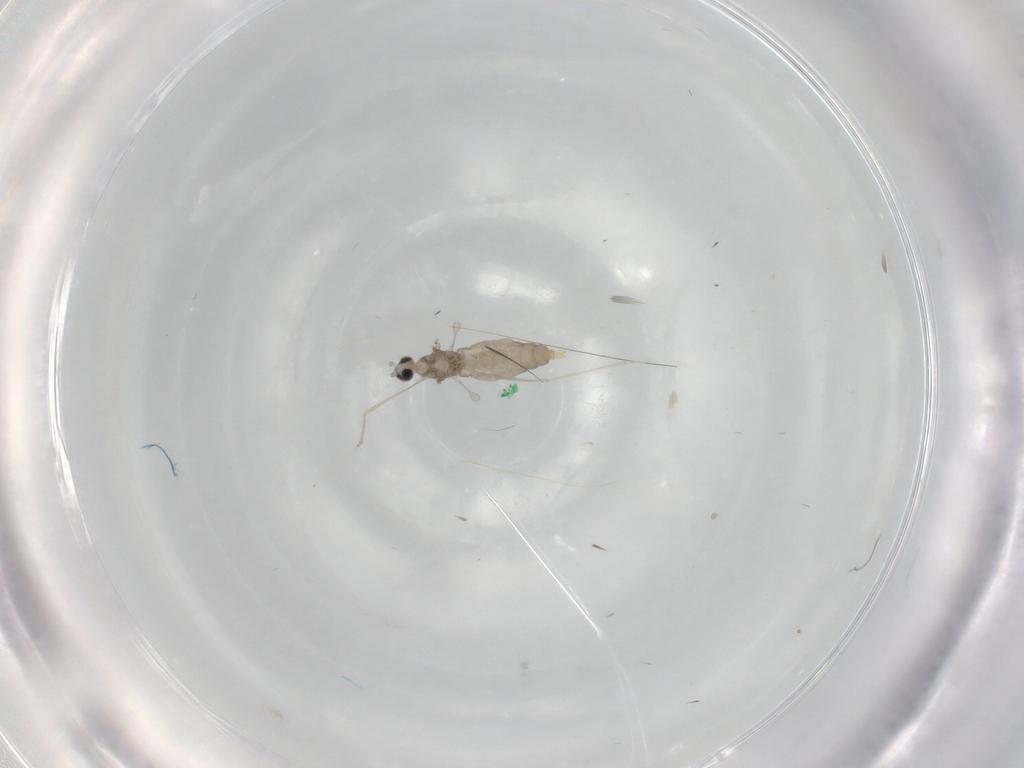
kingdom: Animalia
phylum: Arthropoda
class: Insecta
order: Diptera
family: Cecidomyiidae
